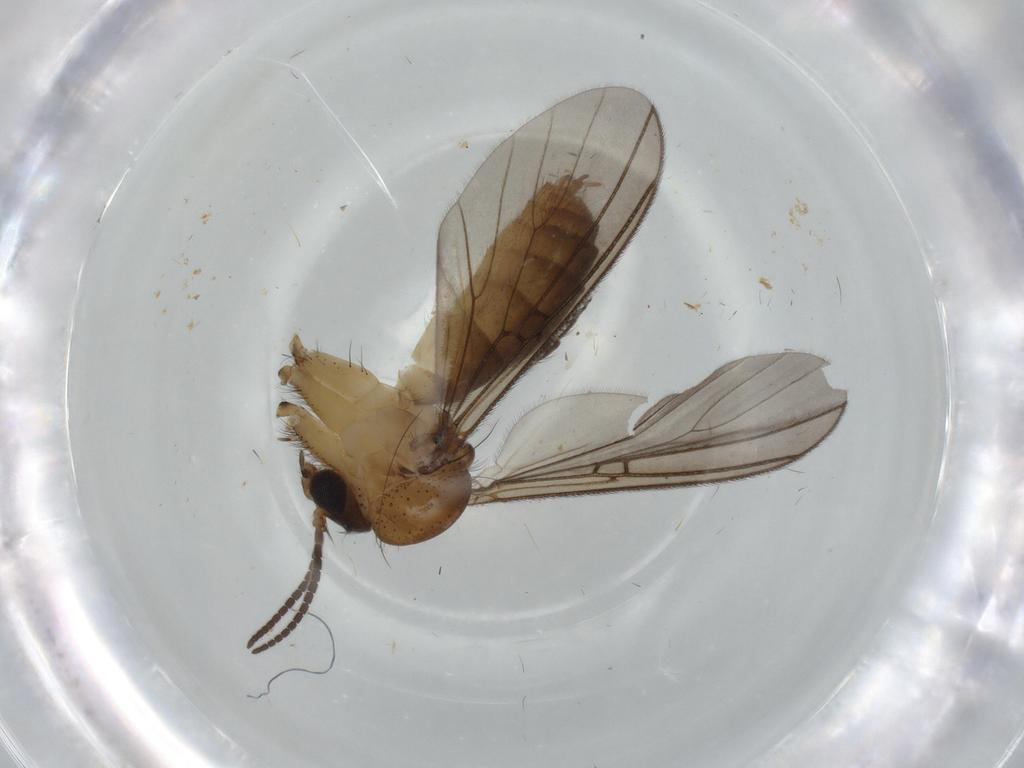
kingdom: Animalia
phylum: Arthropoda
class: Insecta
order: Diptera
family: Mycetophilidae
